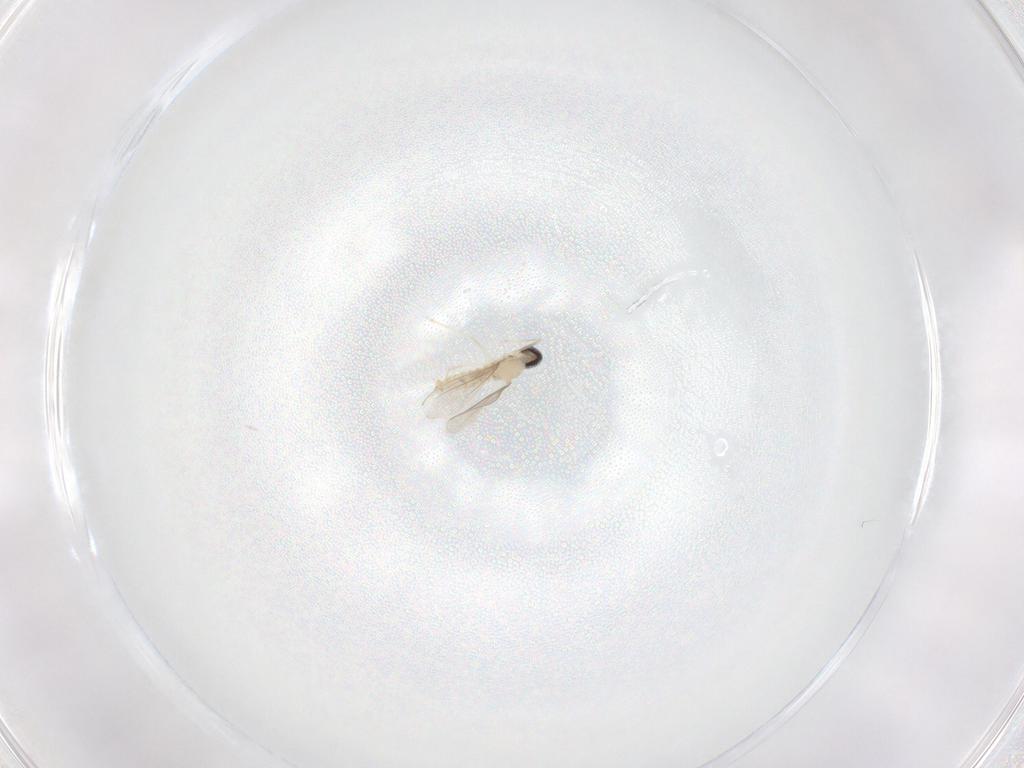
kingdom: Animalia
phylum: Arthropoda
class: Insecta
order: Diptera
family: Cecidomyiidae
